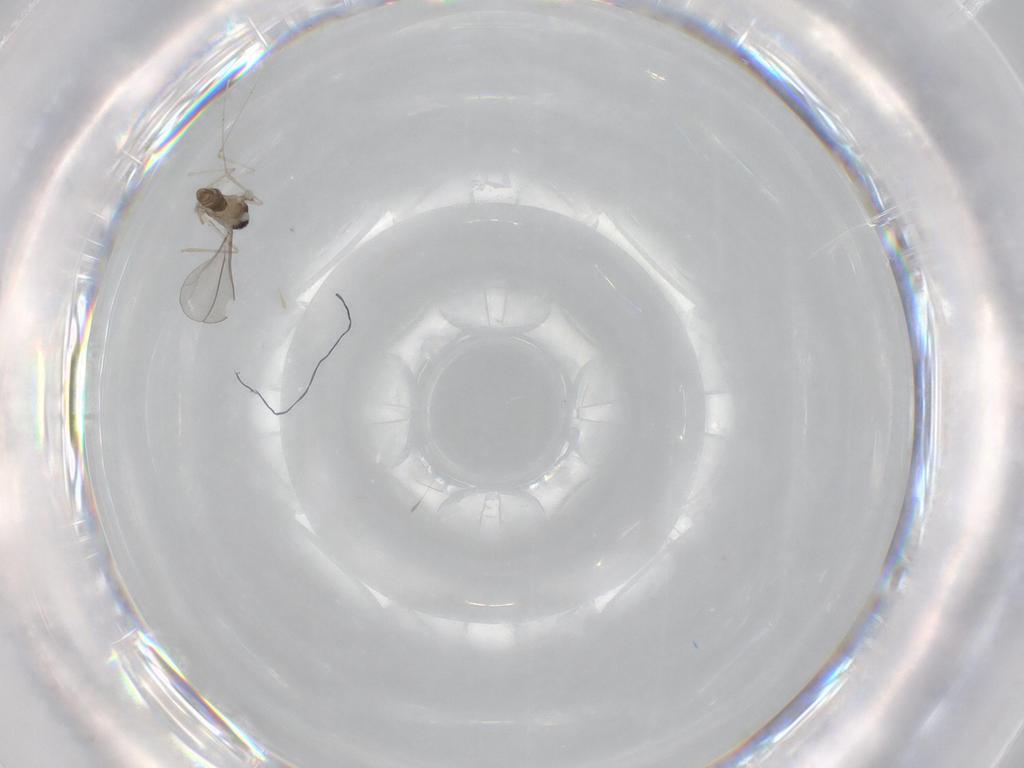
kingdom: Animalia
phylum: Arthropoda
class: Insecta
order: Diptera
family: Cecidomyiidae
